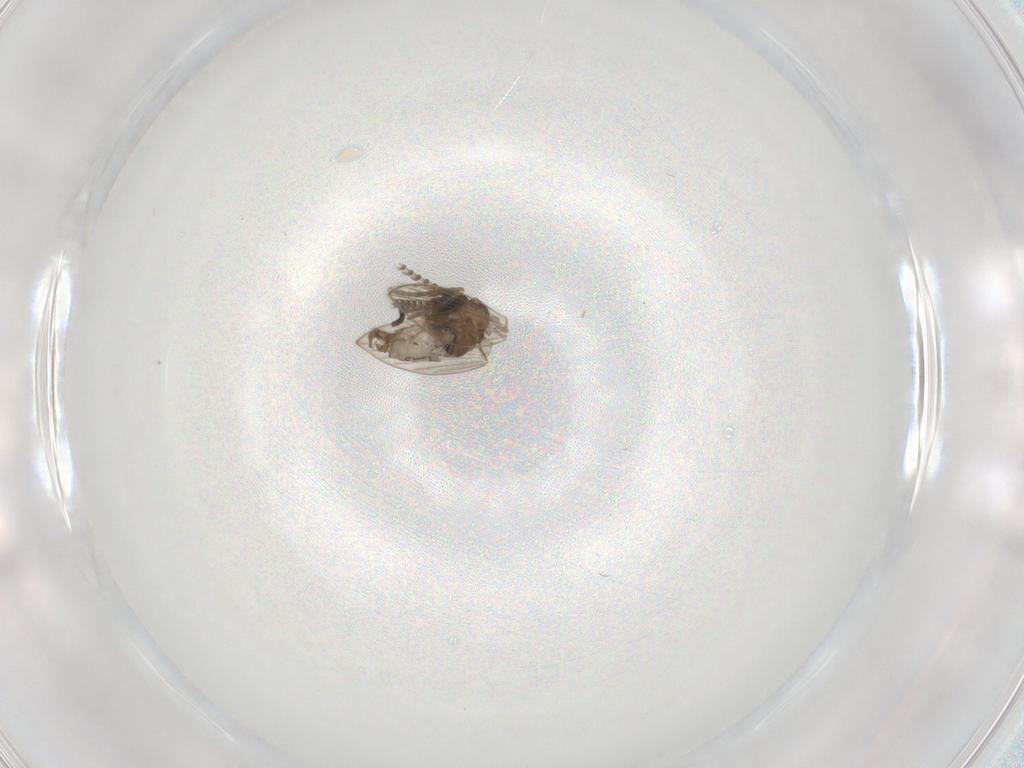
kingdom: Animalia
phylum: Arthropoda
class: Insecta
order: Diptera
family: Psychodidae
